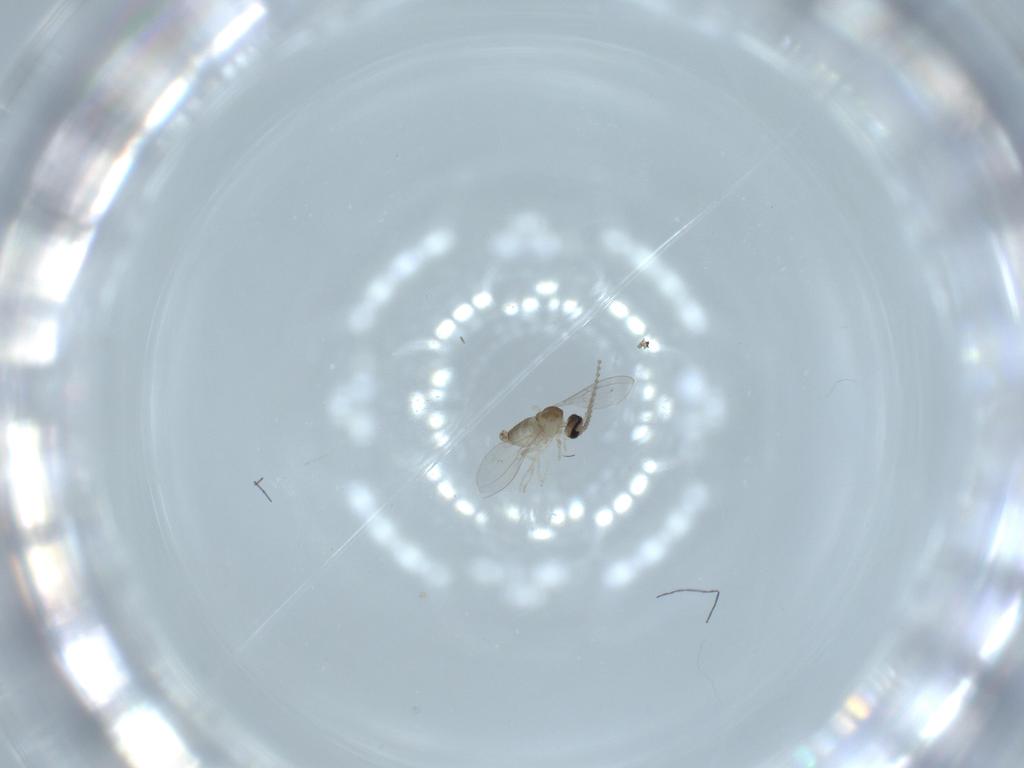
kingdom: Animalia
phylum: Arthropoda
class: Insecta
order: Diptera
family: Cecidomyiidae
